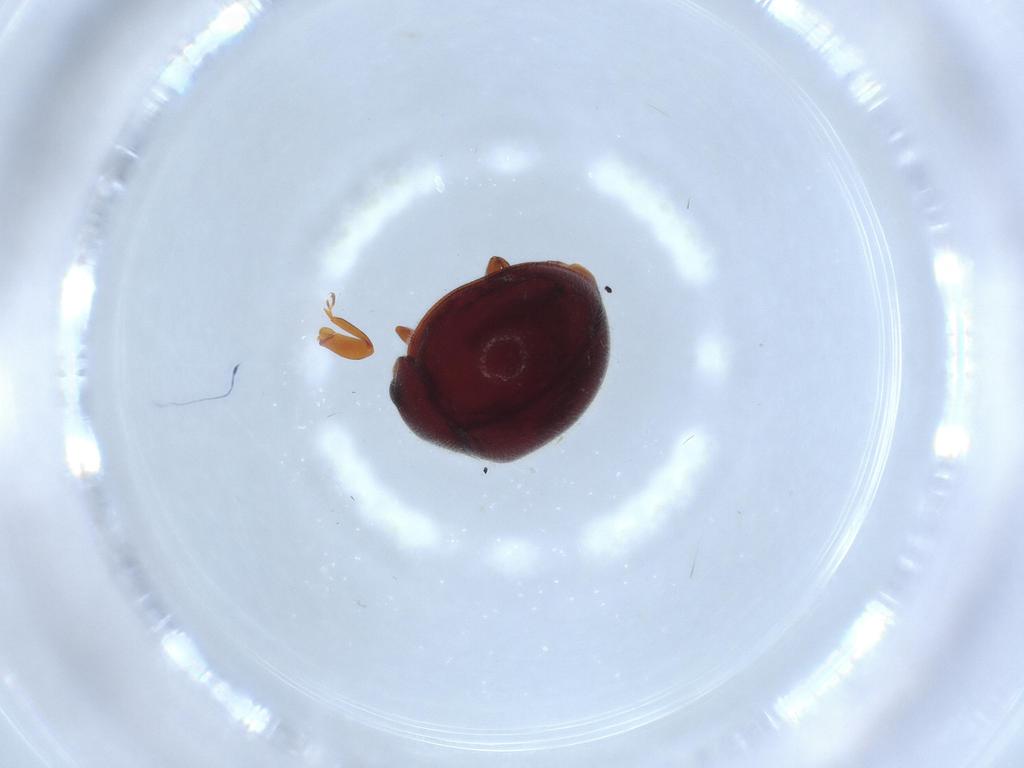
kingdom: Animalia
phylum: Arthropoda
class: Insecta
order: Coleoptera
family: Coccinellidae
